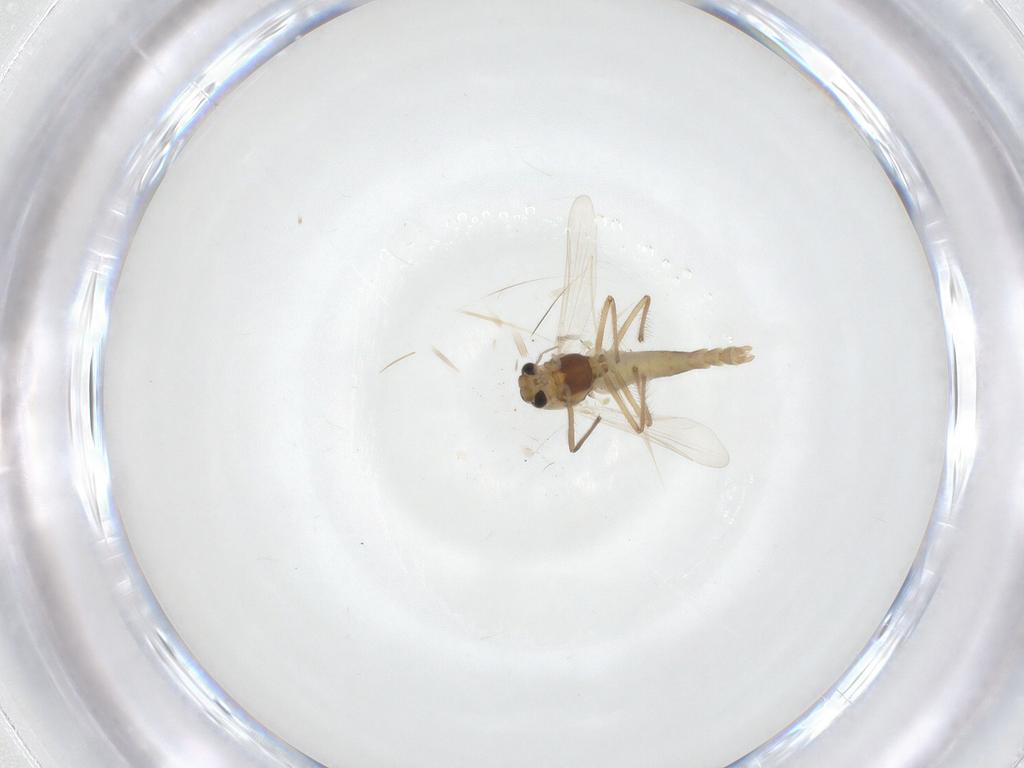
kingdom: Animalia
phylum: Arthropoda
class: Insecta
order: Diptera
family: Chironomidae
